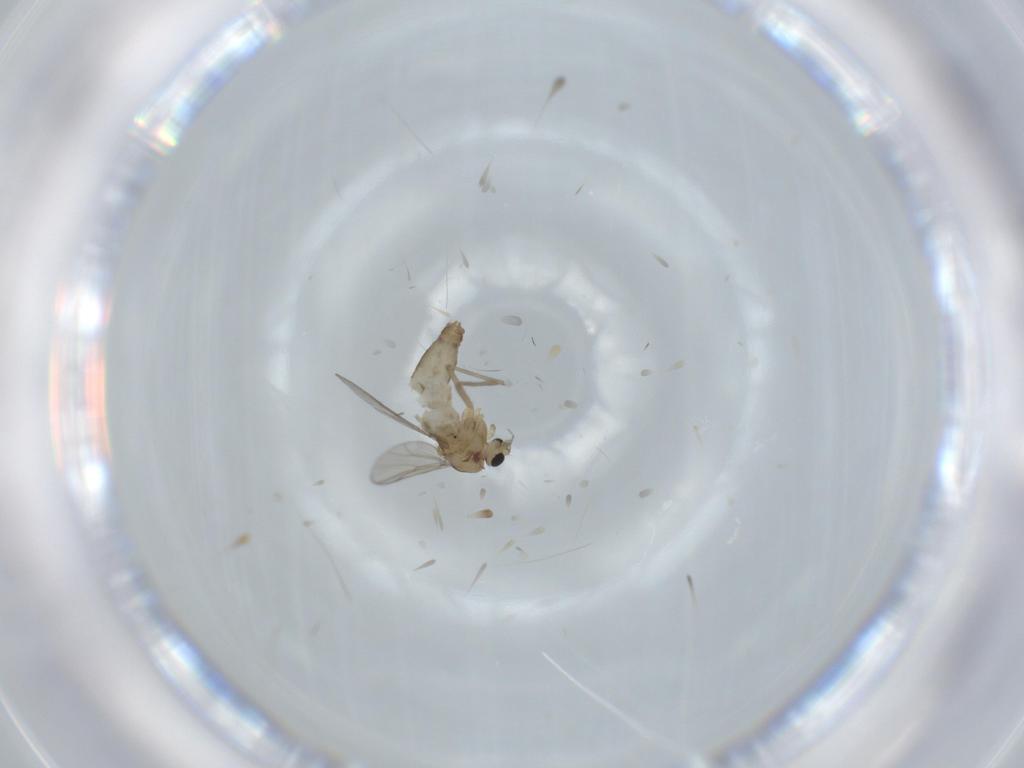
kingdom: Animalia
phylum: Arthropoda
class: Insecta
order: Diptera
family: Chironomidae
